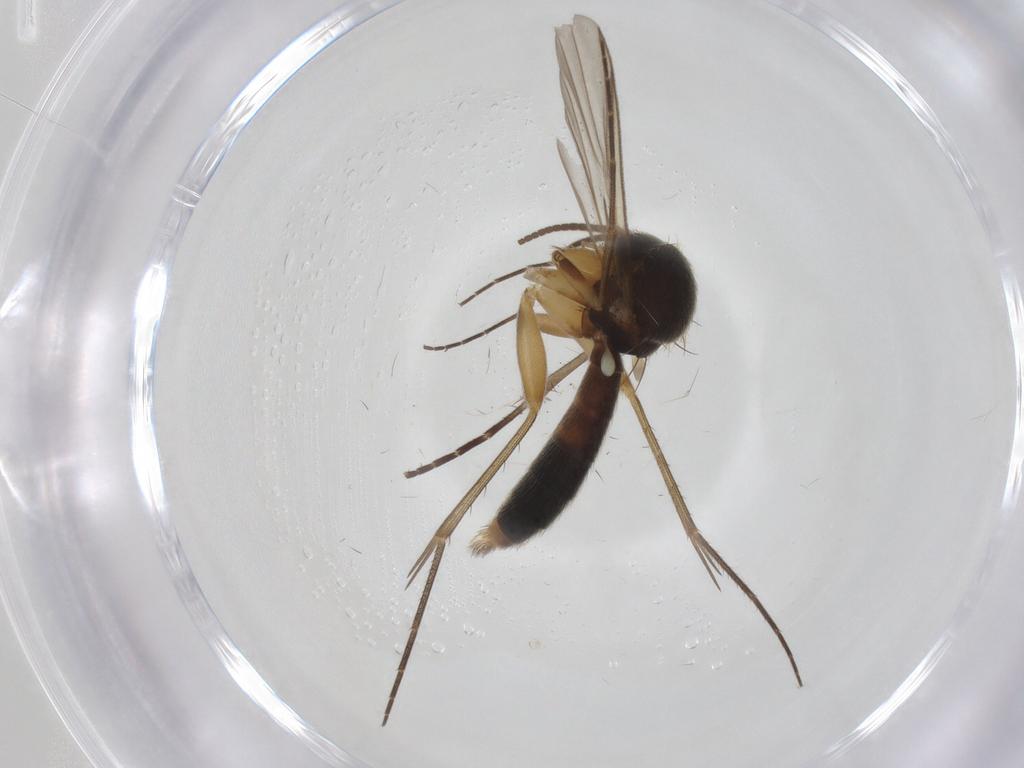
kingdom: Animalia
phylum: Arthropoda
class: Insecta
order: Diptera
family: Sciaridae
